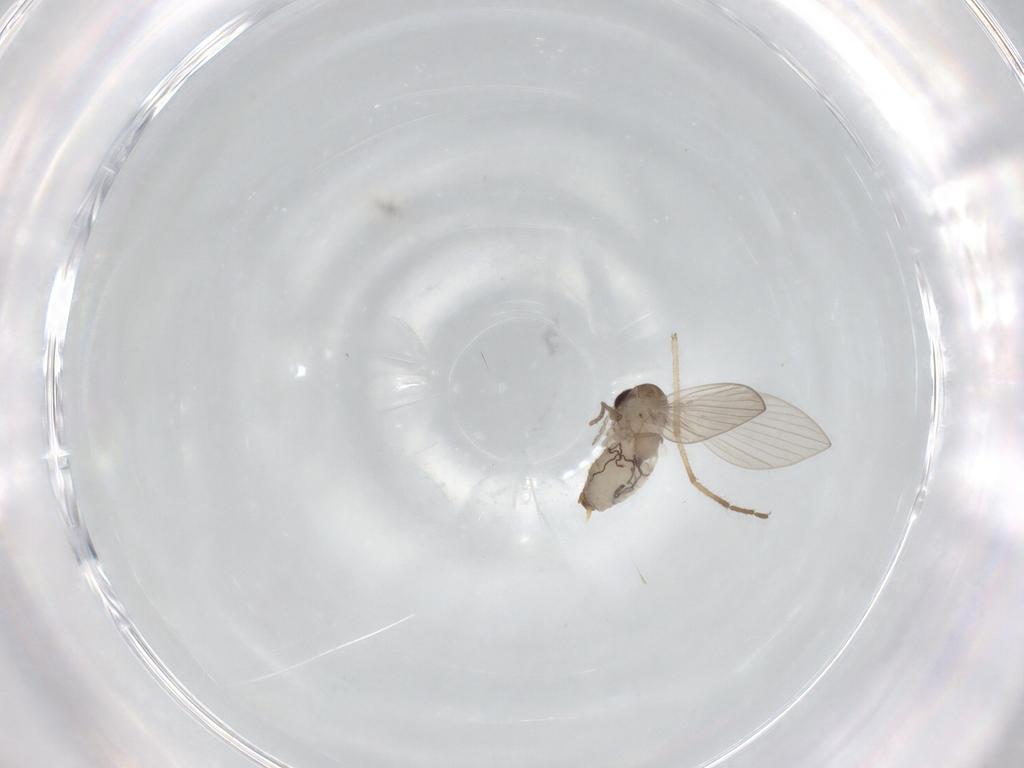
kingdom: Animalia
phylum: Arthropoda
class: Insecta
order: Diptera
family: Psychodidae
